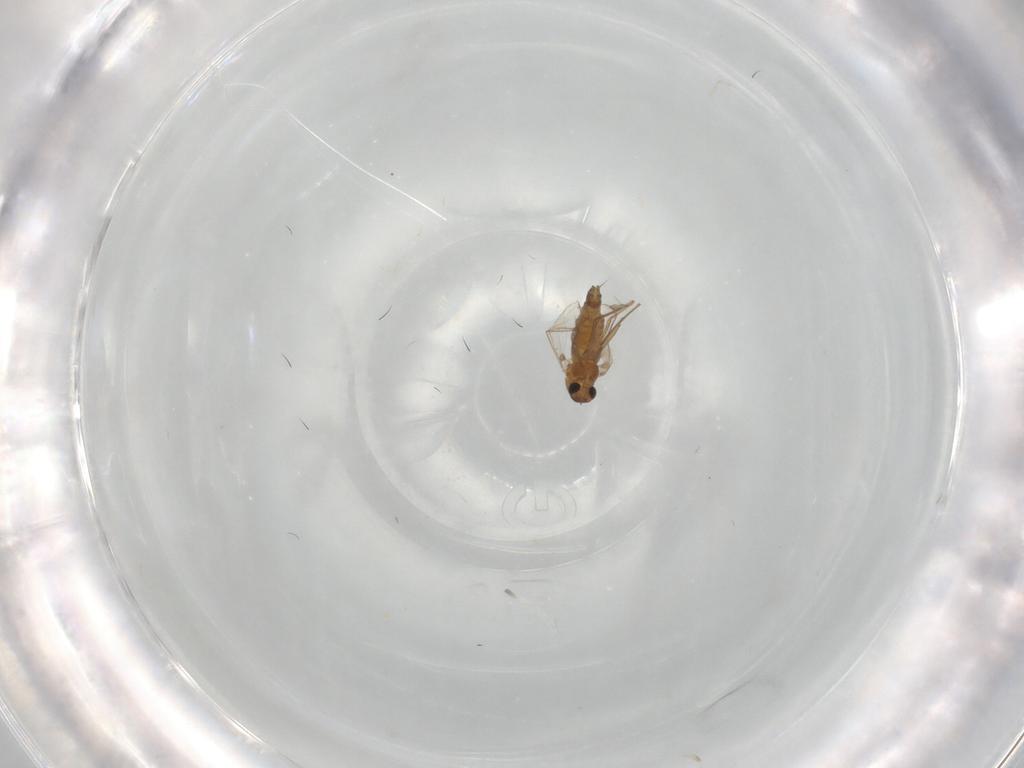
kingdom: Animalia
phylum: Arthropoda
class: Insecta
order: Diptera
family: Chironomidae
